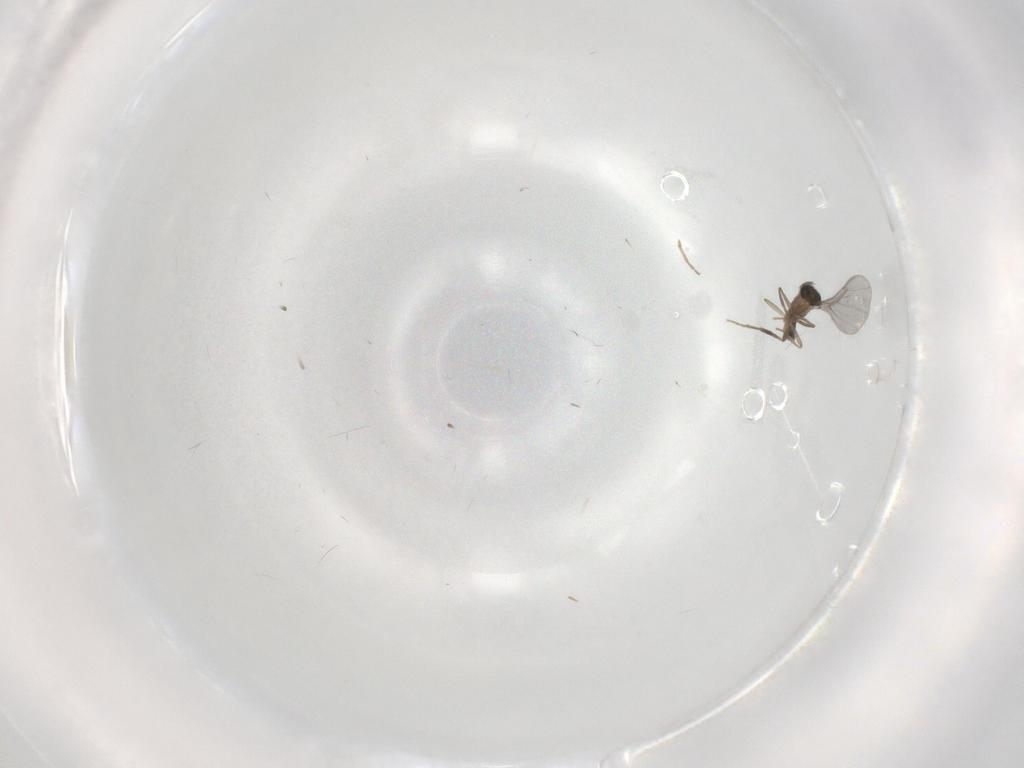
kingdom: Animalia
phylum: Arthropoda
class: Insecta
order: Diptera
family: Phoridae
